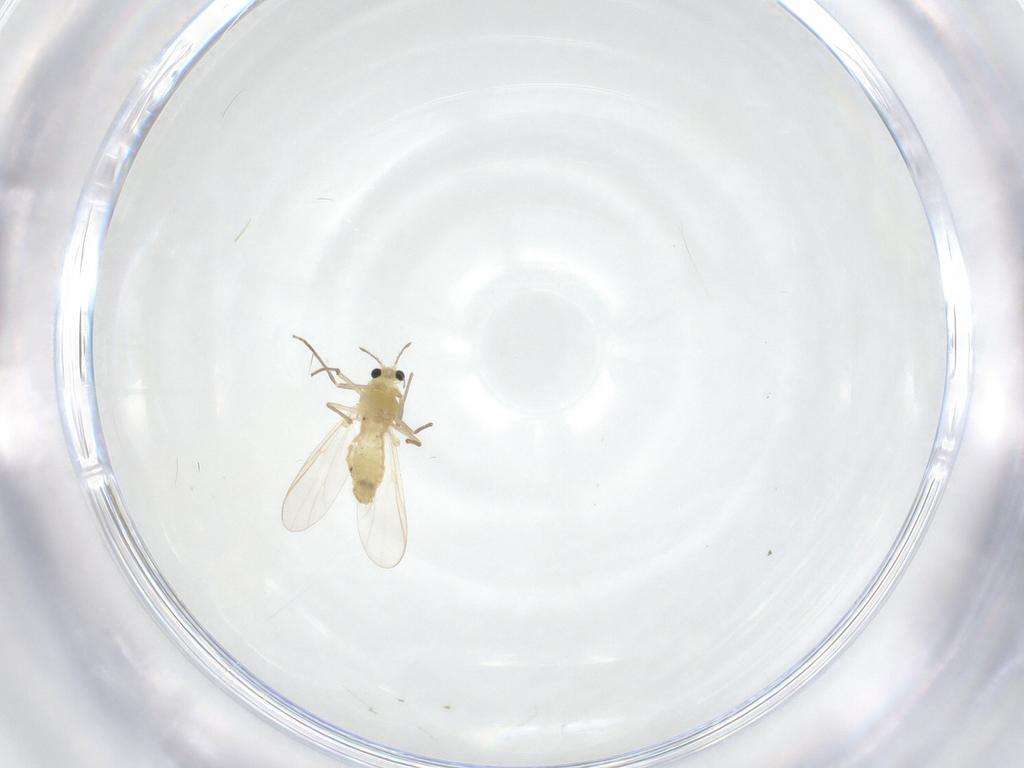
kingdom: Animalia
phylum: Arthropoda
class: Insecta
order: Diptera
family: Chironomidae
